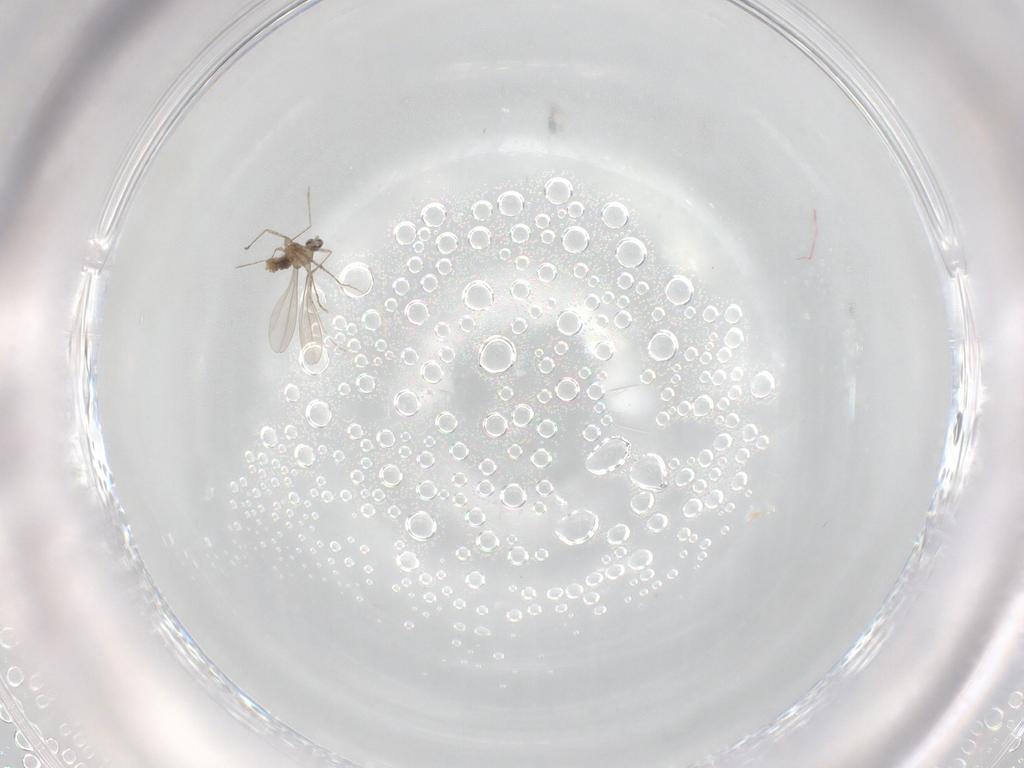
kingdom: Animalia
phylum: Arthropoda
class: Insecta
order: Diptera
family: Cecidomyiidae
